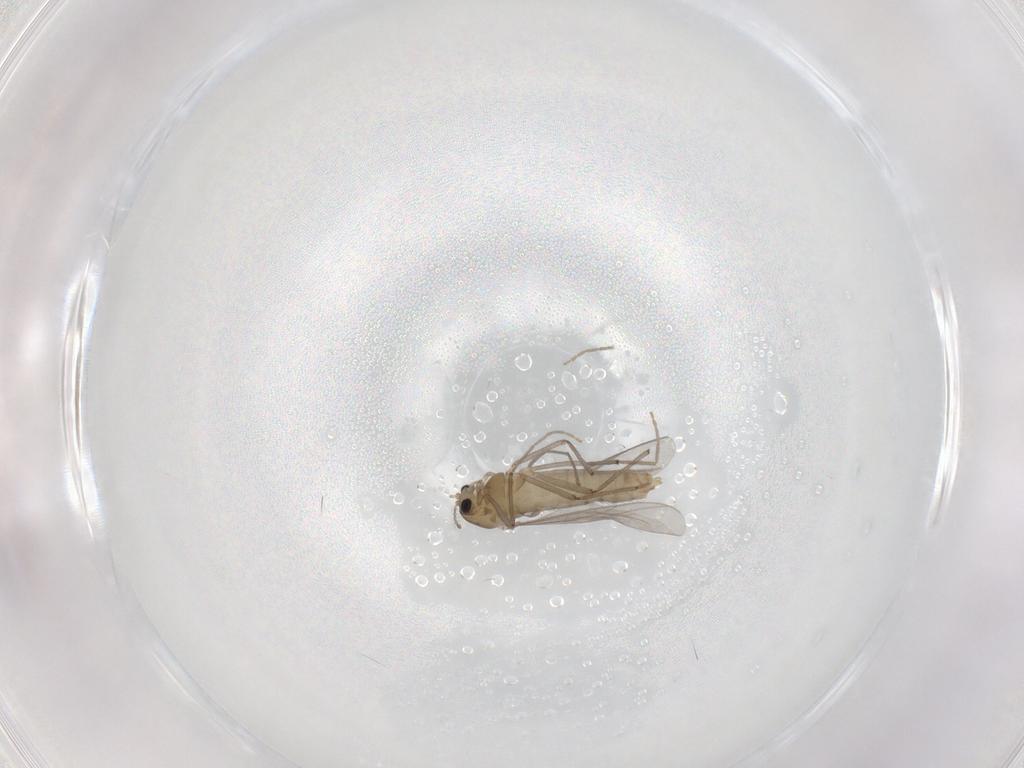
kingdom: Animalia
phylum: Arthropoda
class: Insecta
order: Diptera
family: Chironomidae
